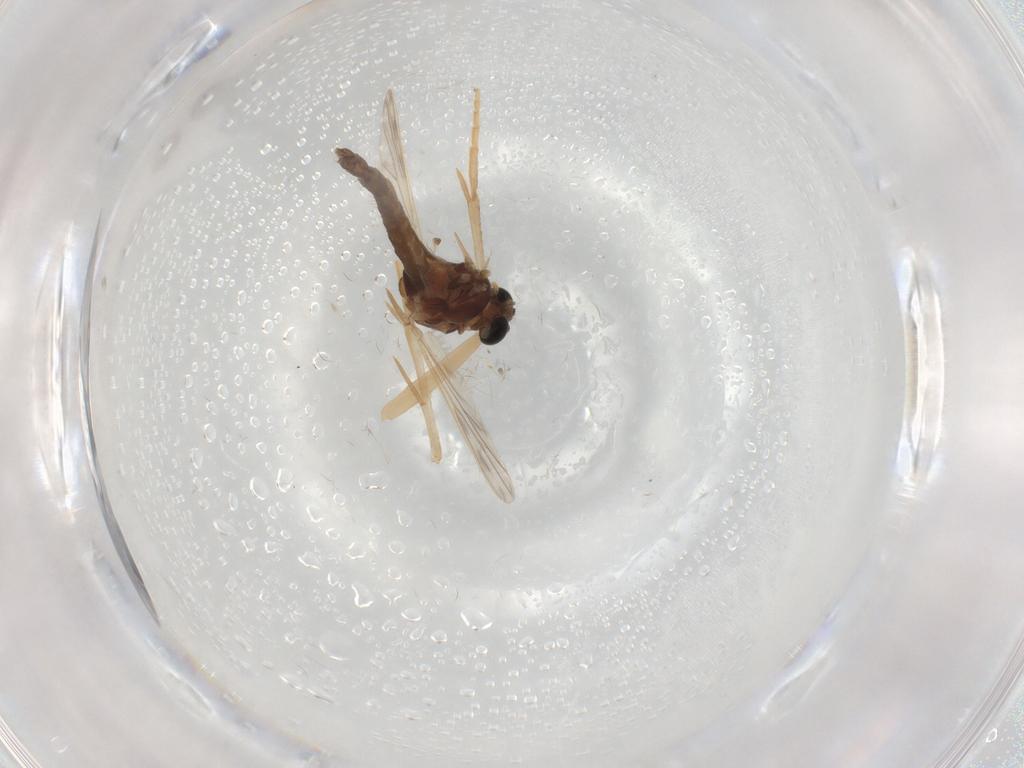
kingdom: Animalia
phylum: Arthropoda
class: Insecta
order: Diptera
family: Chironomidae
